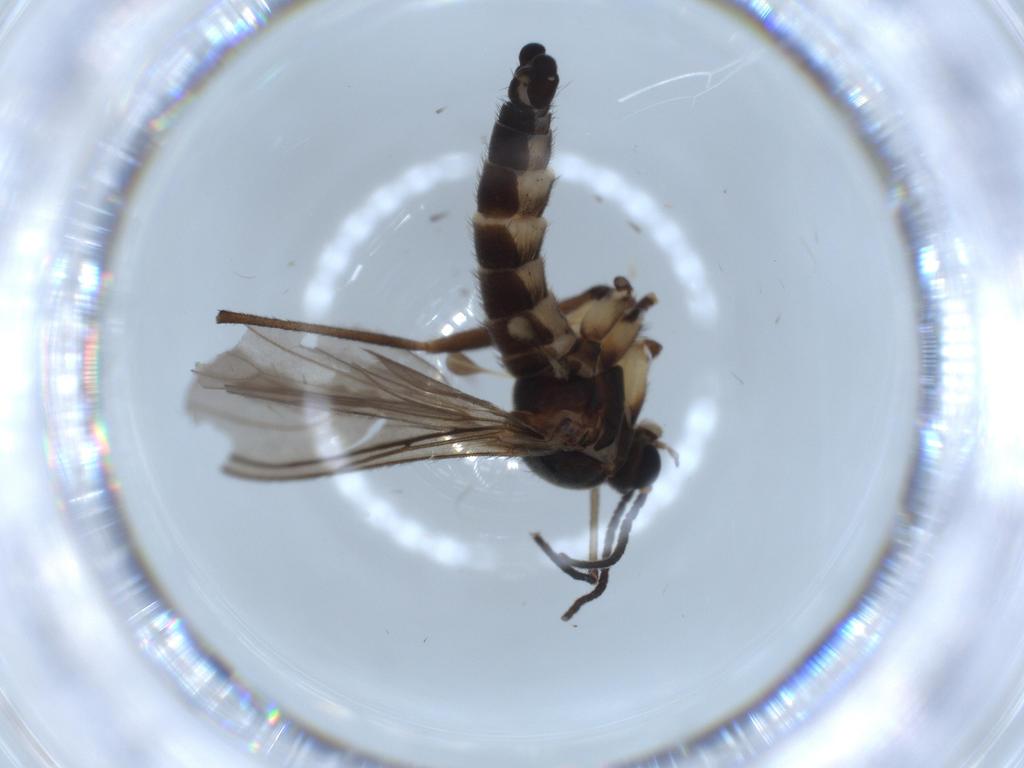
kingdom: Animalia
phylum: Arthropoda
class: Insecta
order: Diptera
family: Sciaridae
